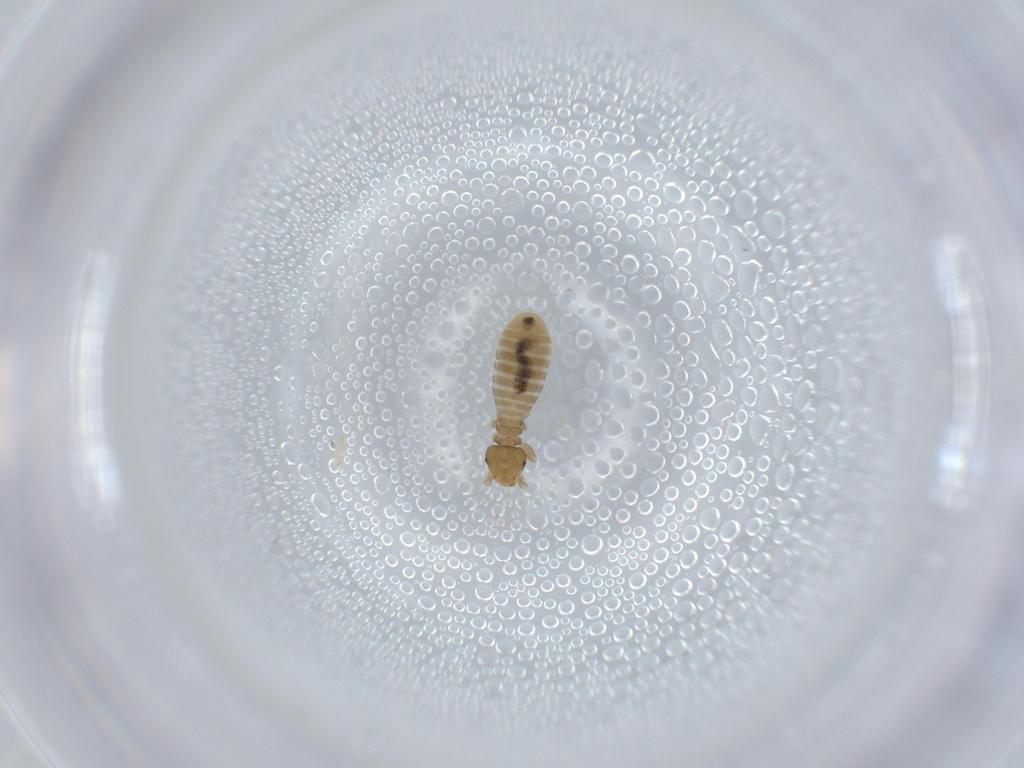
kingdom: Animalia
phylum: Arthropoda
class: Insecta
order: Psocodea
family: Liposcelididae
